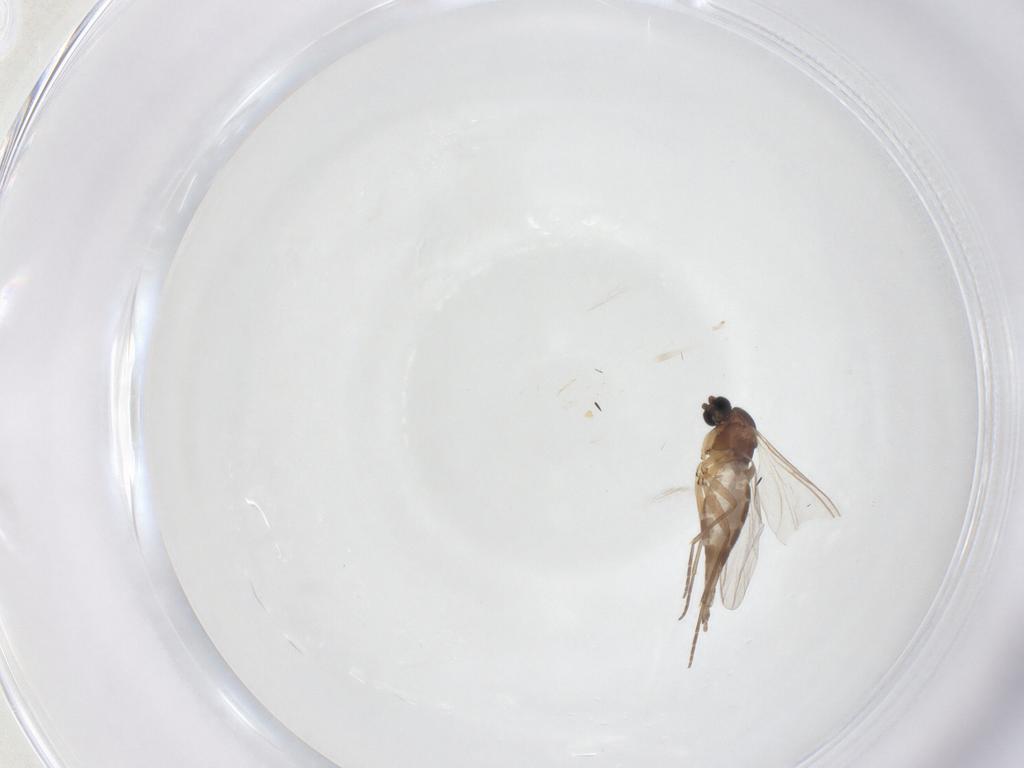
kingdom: Animalia
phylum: Arthropoda
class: Insecta
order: Diptera
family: Sciaridae
